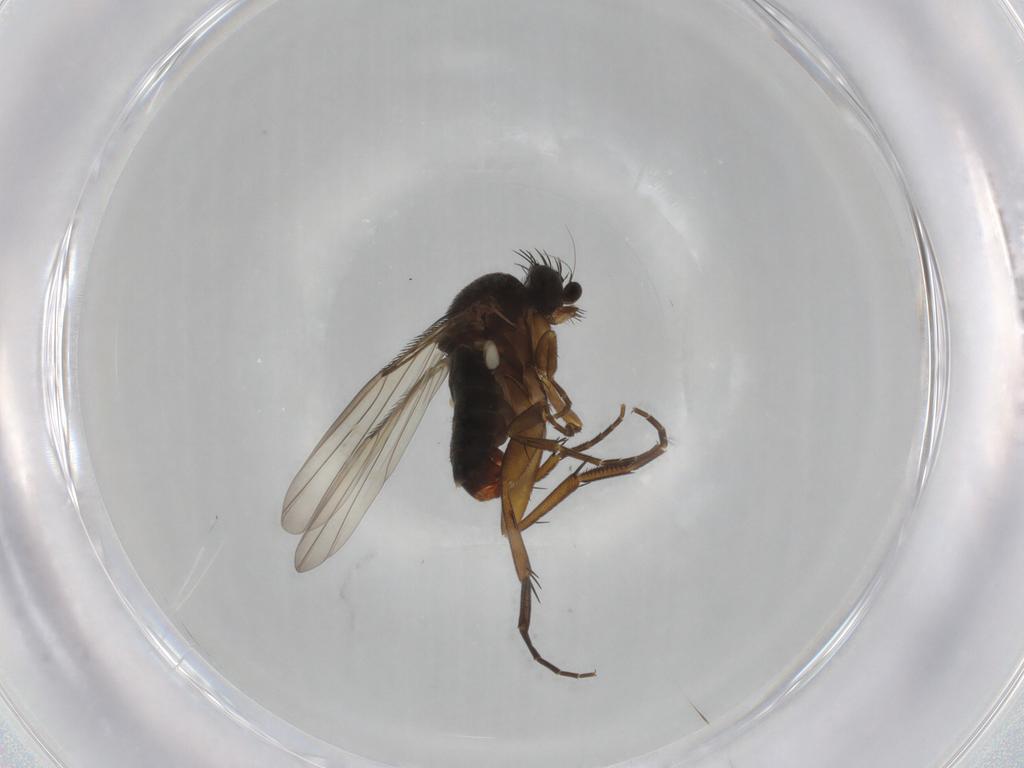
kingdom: Animalia
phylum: Arthropoda
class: Insecta
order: Diptera
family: Phoridae
